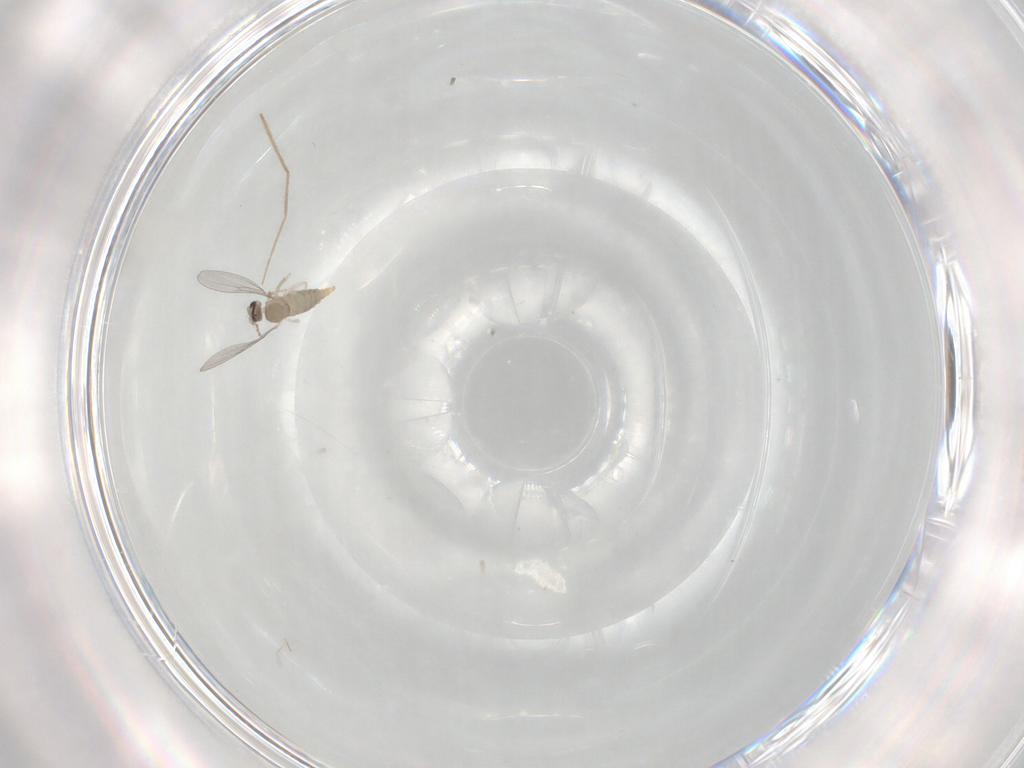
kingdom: Animalia
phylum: Arthropoda
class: Insecta
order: Diptera
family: Cecidomyiidae
